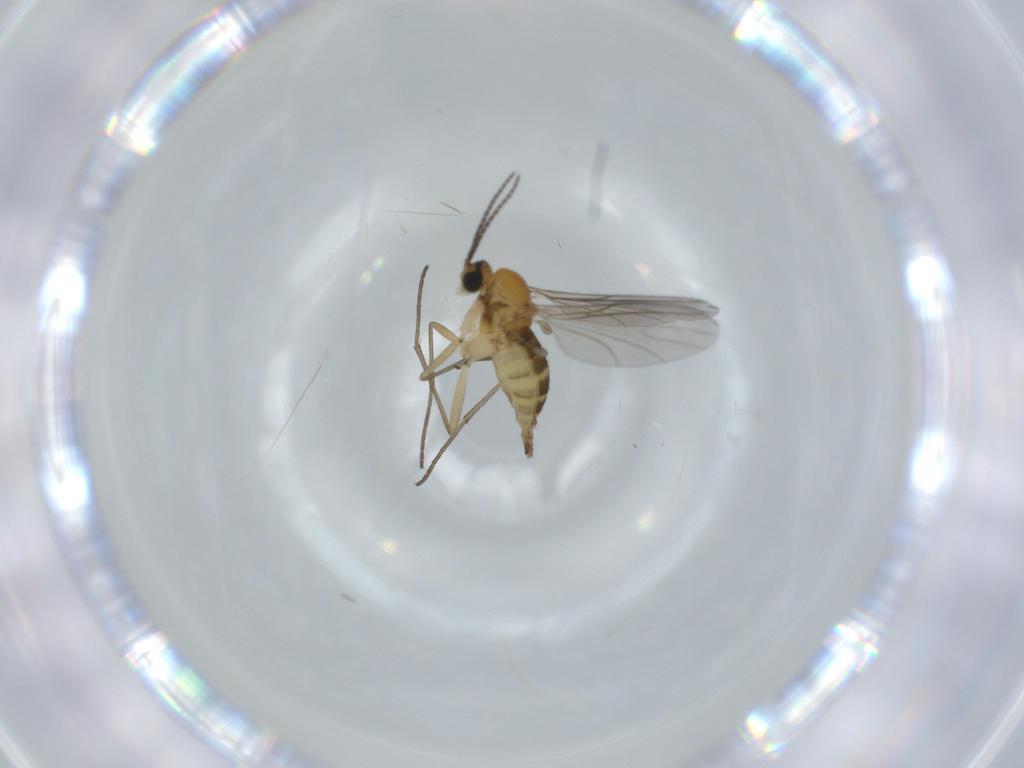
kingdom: Animalia
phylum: Arthropoda
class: Insecta
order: Diptera
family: Sciaridae
